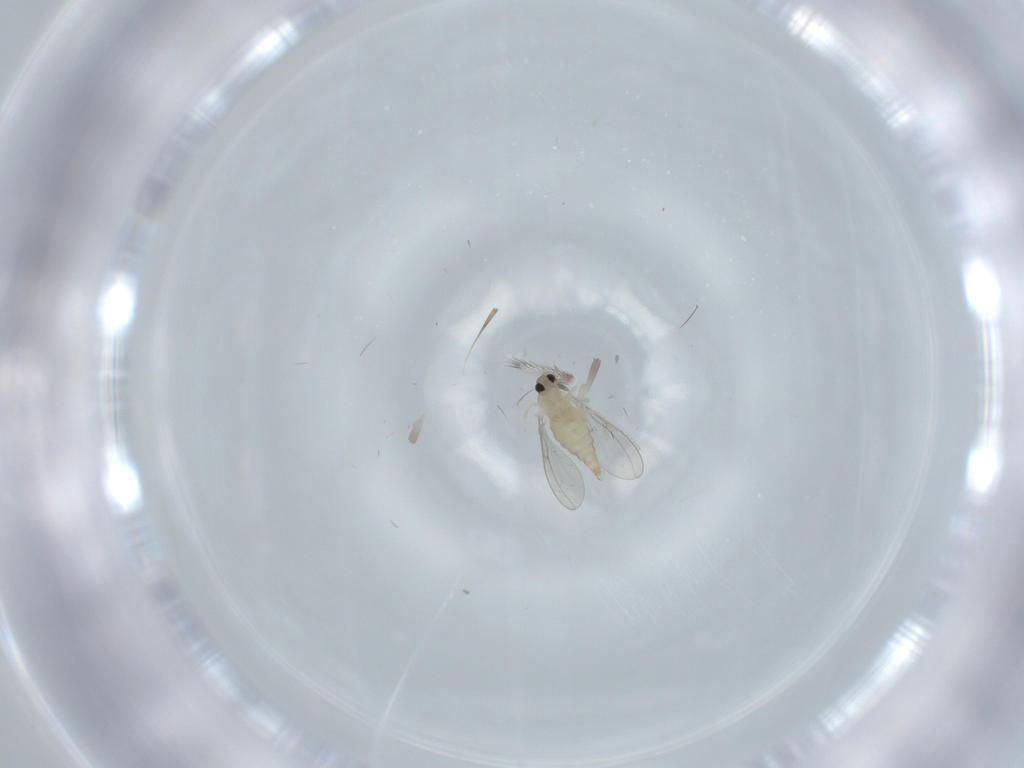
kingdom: Animalia
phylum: Arthropoda
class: Insecta
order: Diptera
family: Cecidomyiidae
